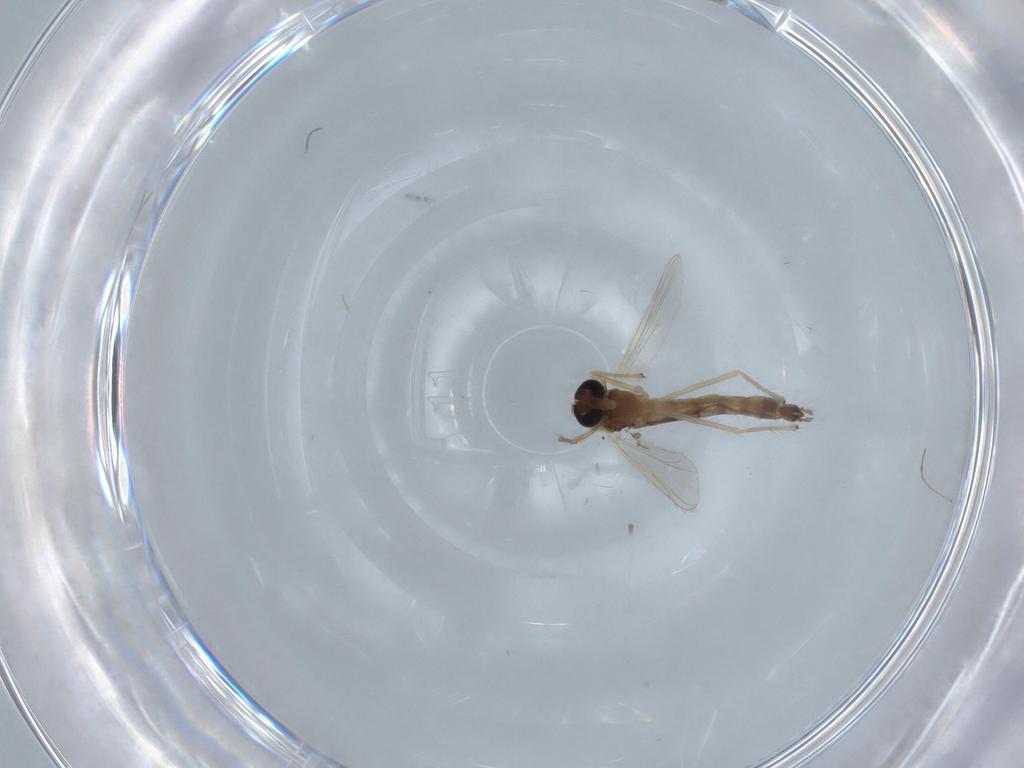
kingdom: Animalia
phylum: Arthropoda
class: Insecta
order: Diptera
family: Chironomidae
